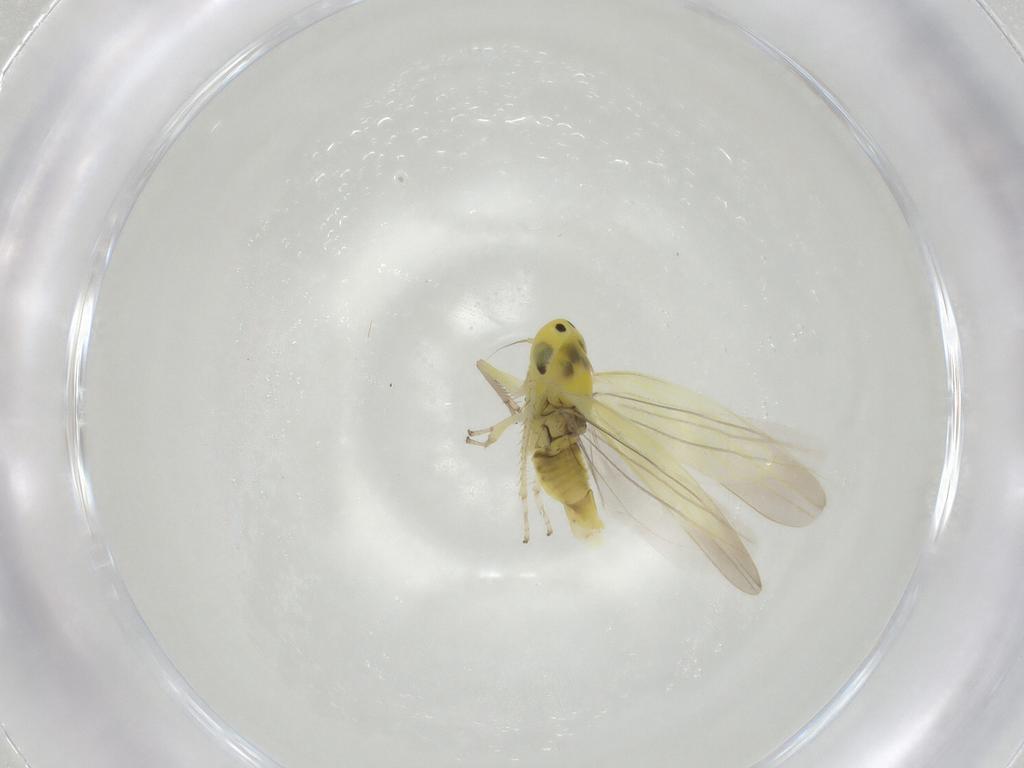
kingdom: Animalia
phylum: Arthropoda
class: Insecta
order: Hemiptera
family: Cicadellidae
